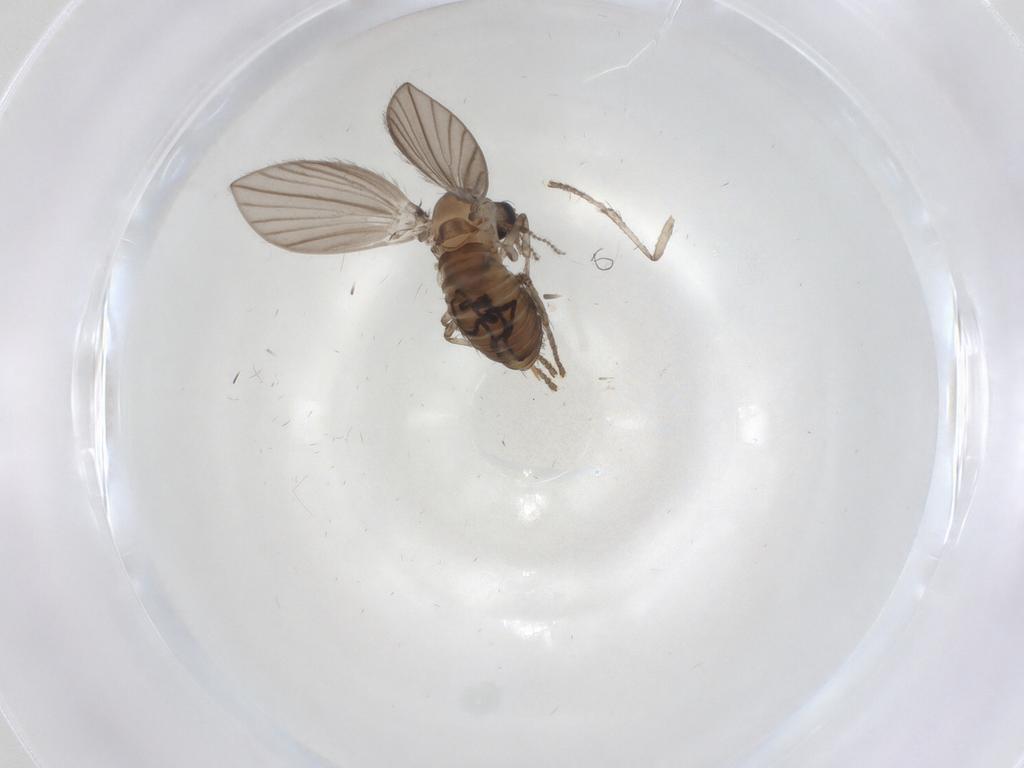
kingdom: Animalia
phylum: Arthropoda
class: Insecta
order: Diptera
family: Psychodidae
